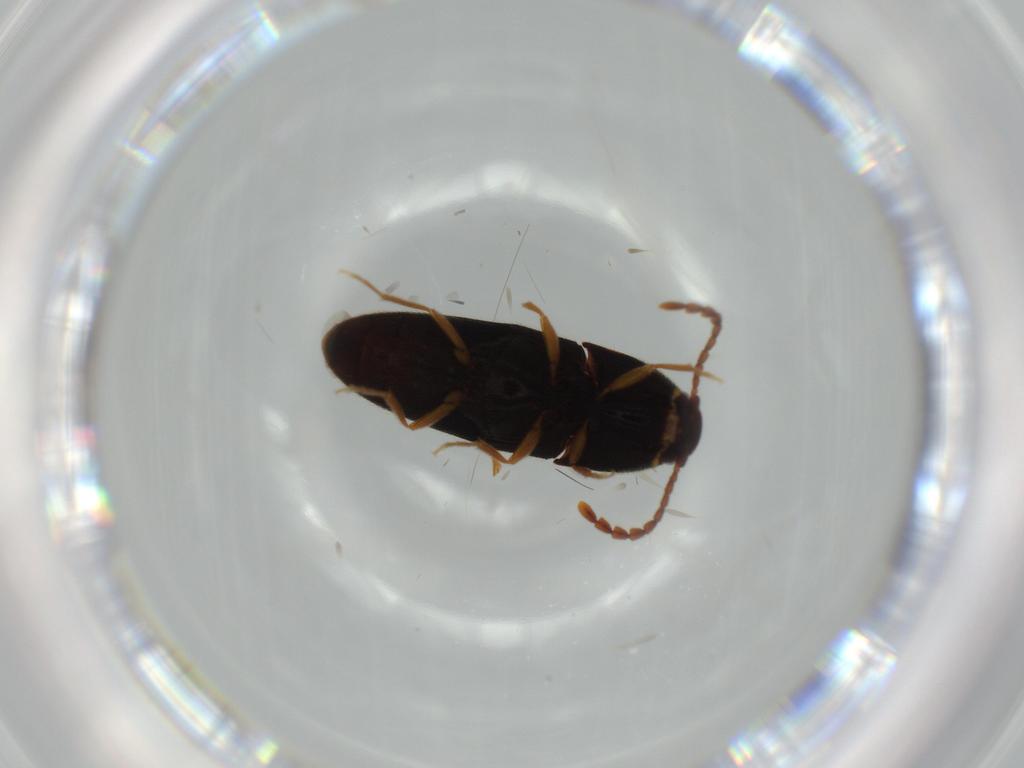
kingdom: Animalia
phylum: Arthropoda
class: Insecta
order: Coleoptera
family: Elateridae
